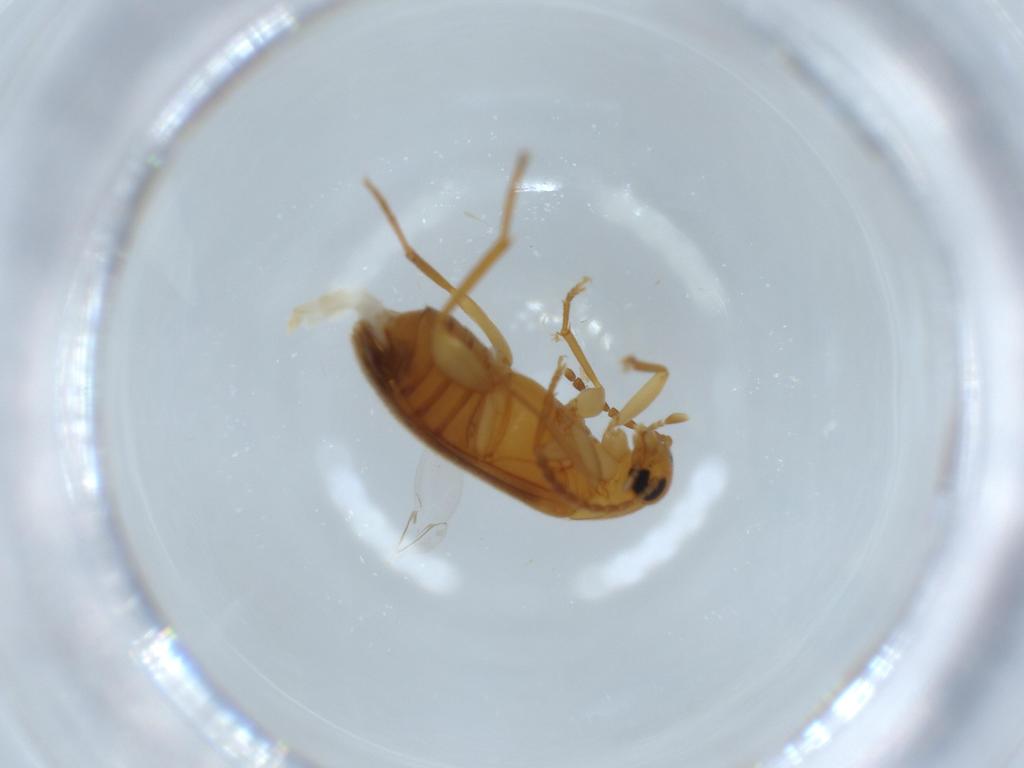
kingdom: Animalia
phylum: Arthropoda
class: Insecta
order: Coleoptera
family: Scraptiidae
